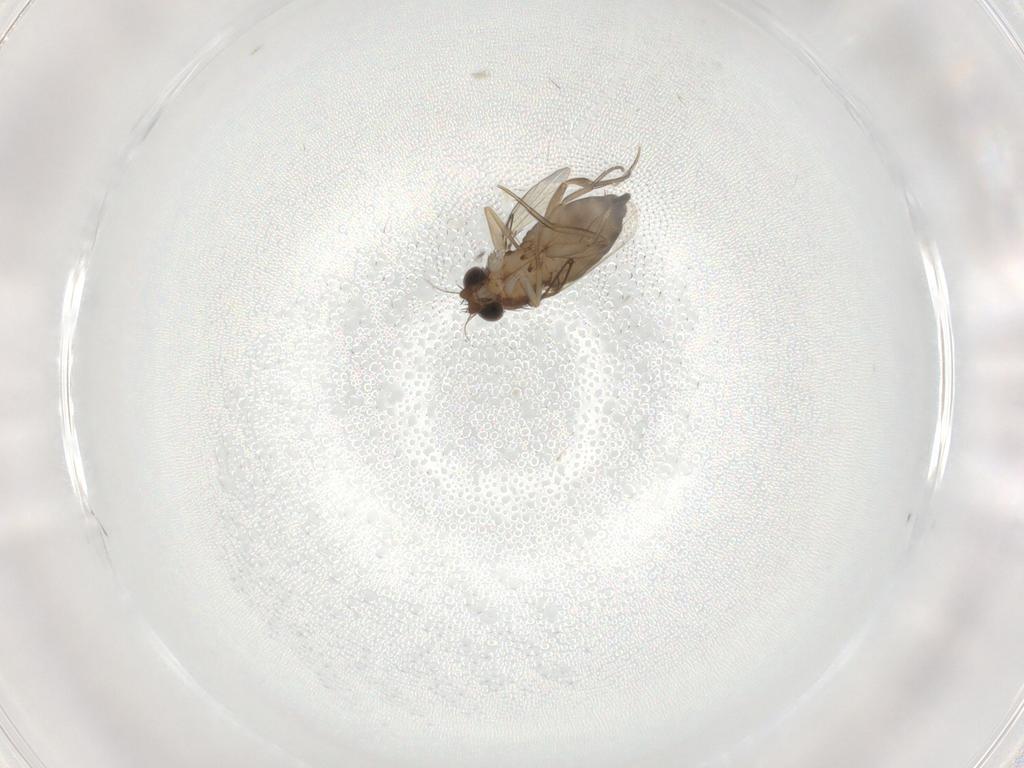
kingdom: Animalia
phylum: Arthropoda
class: Insecta
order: Diptera
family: Phoridae
